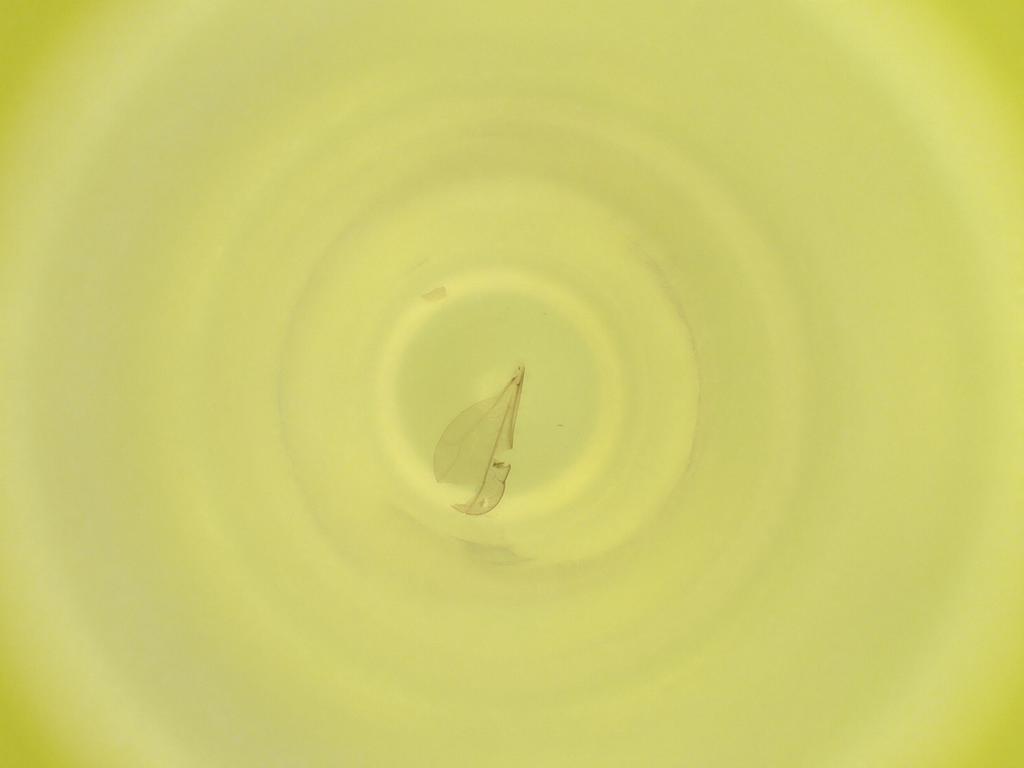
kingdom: Animalia
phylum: Arthropoda
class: Insecta
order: Diptera
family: Cecidomyiidae
